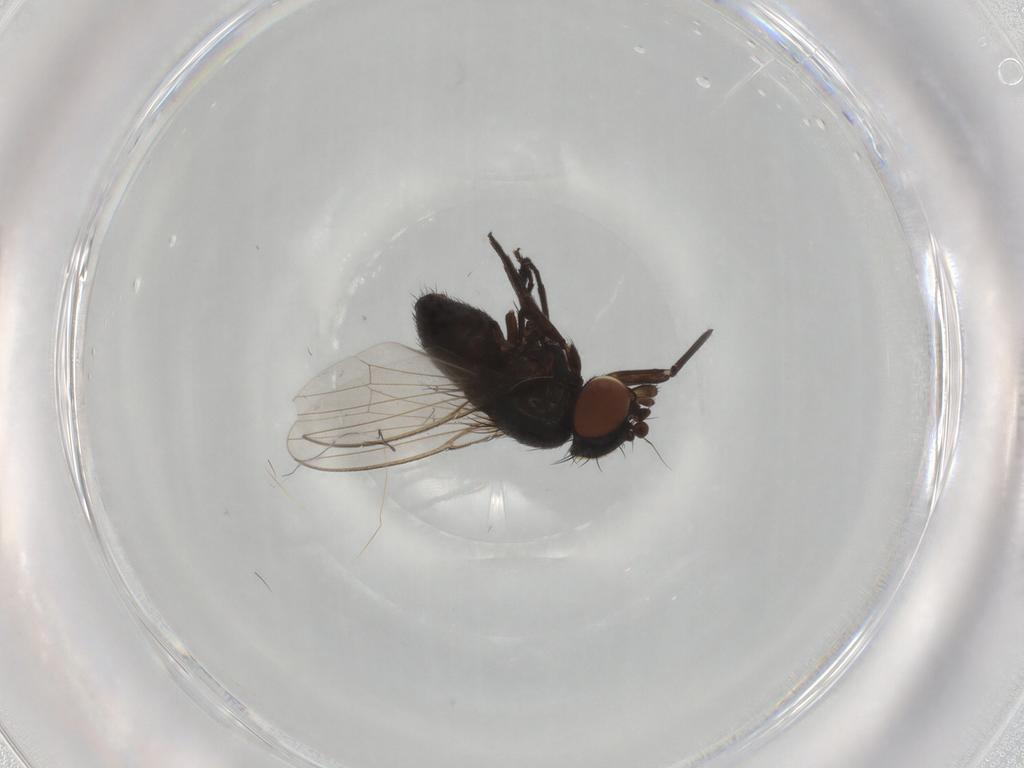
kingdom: Animalia
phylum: Arthropoda
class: Insecta
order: Diptera
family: Milichiidae
